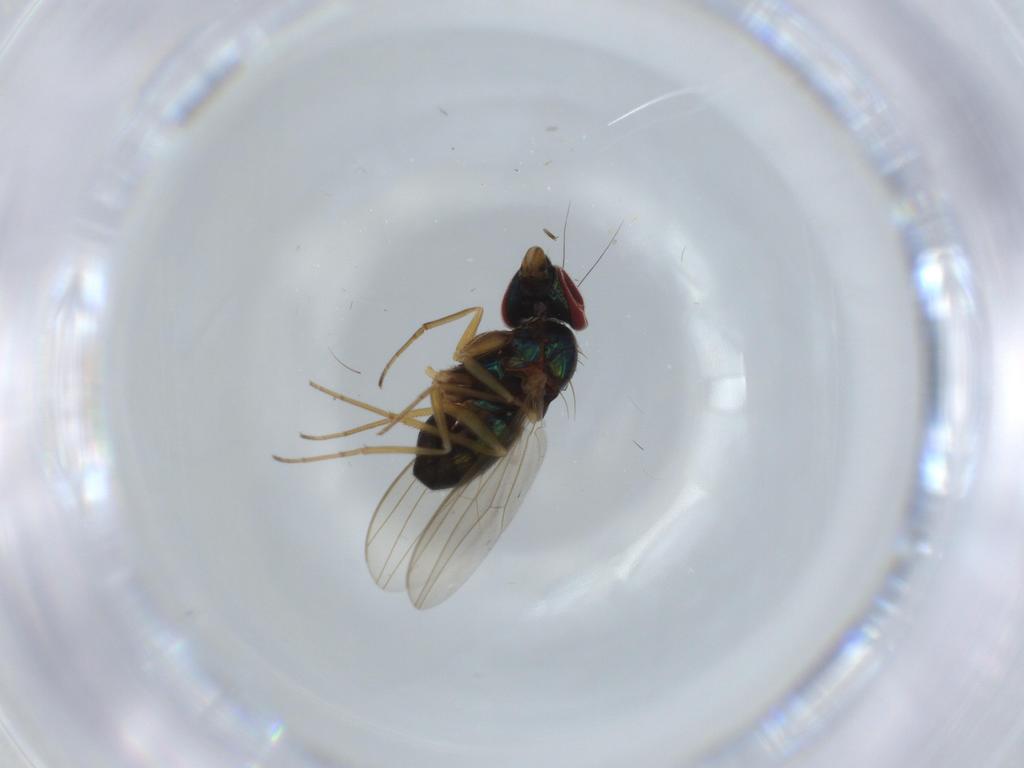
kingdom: Animalia
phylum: Arthropoda
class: Insecta
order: Diptera
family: Dolichopodidae
